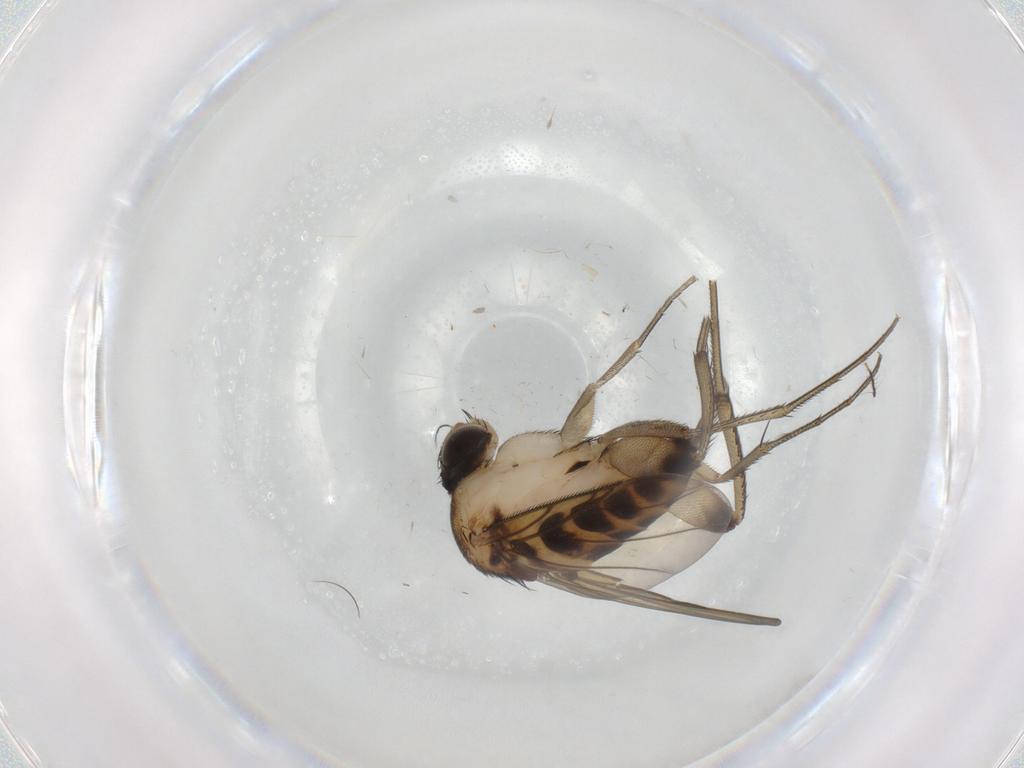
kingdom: Animalia
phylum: Arthropoda
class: Insecta
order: Diptera
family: Phoridae
